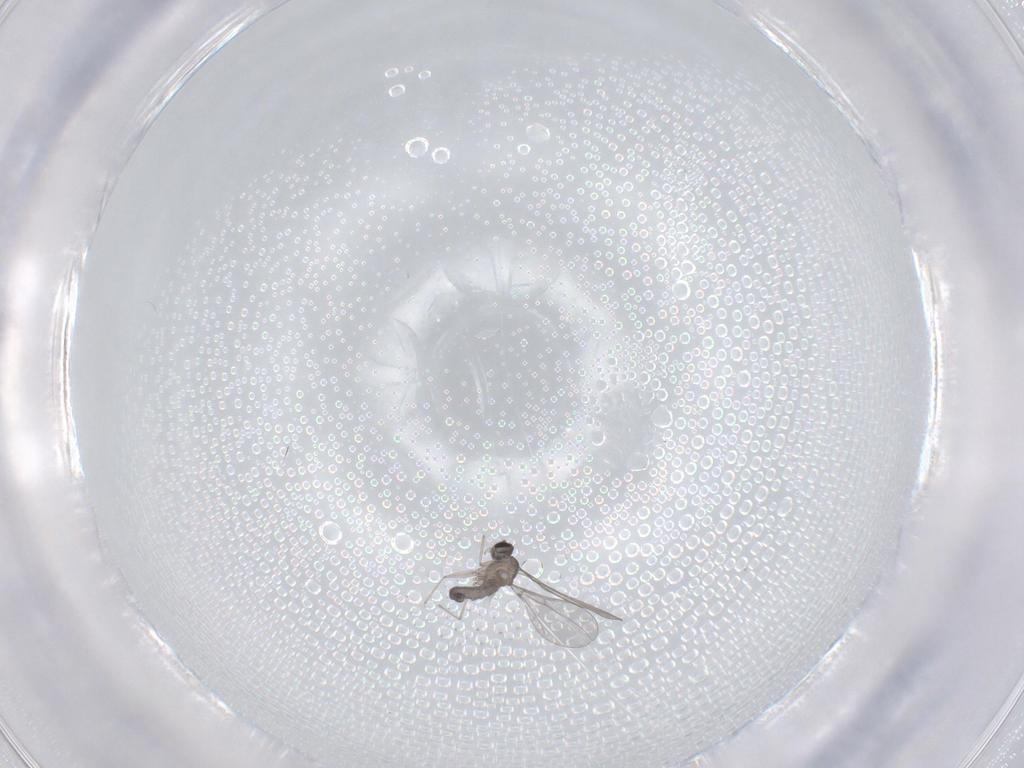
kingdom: Animalia
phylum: Arthropoda
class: Insecta
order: Diptera
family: Cecidomyiidae
